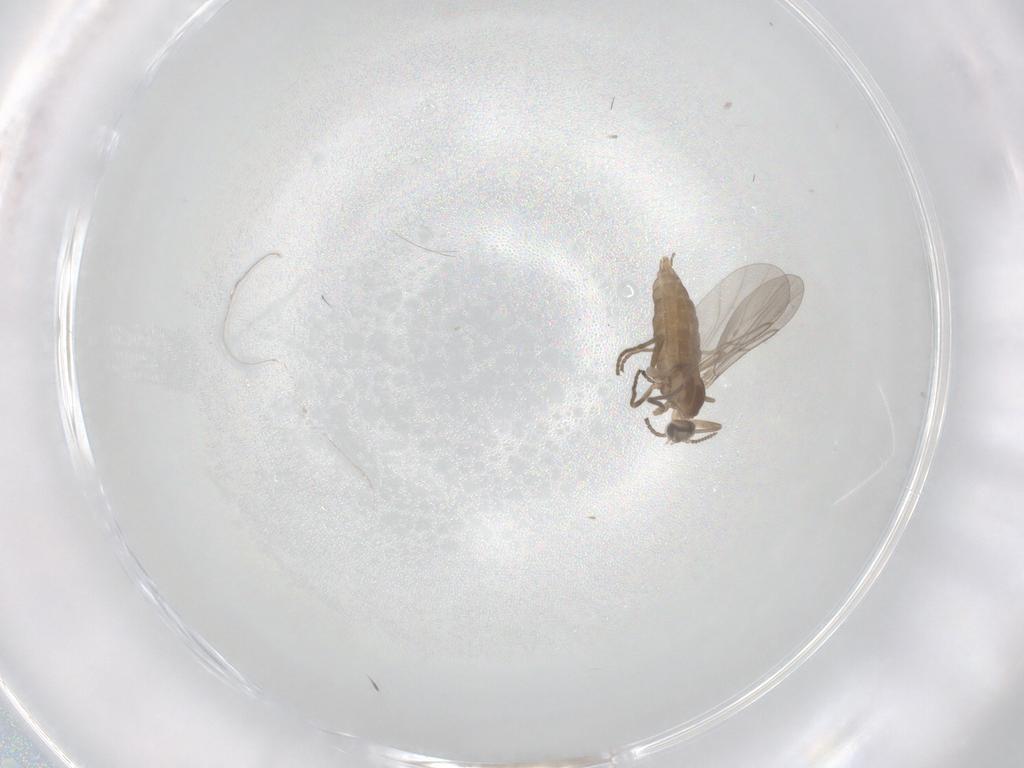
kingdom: Animalia
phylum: Arthropoda
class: Insecta
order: Diptera
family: Cecidomyiidae
